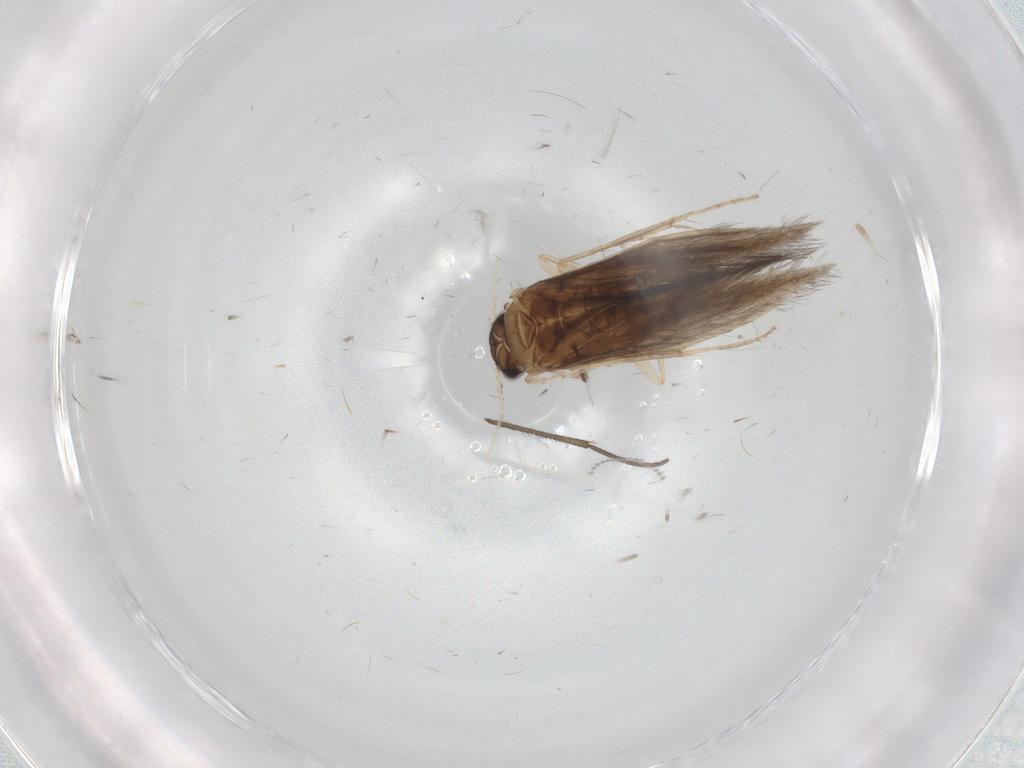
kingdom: Animalia
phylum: Arthropoda
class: Insecta
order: Trichoptera
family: Hydroptilidae
